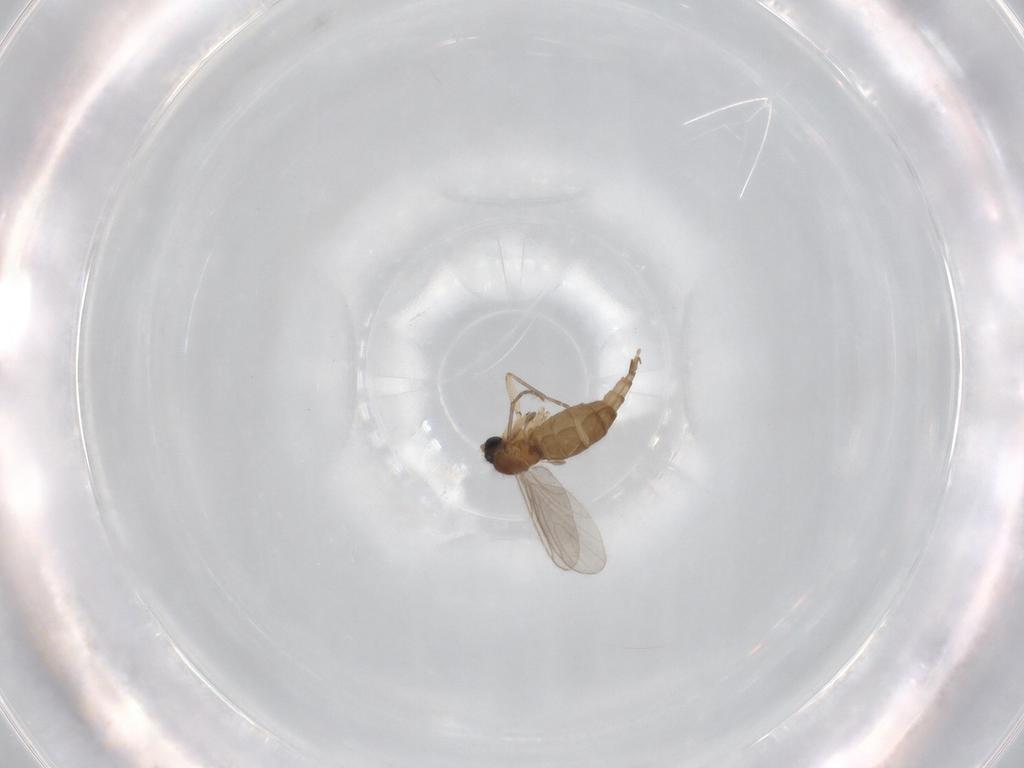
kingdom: Animalia
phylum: Arthropoda
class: Insecta
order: Diptera
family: Sciaridae
